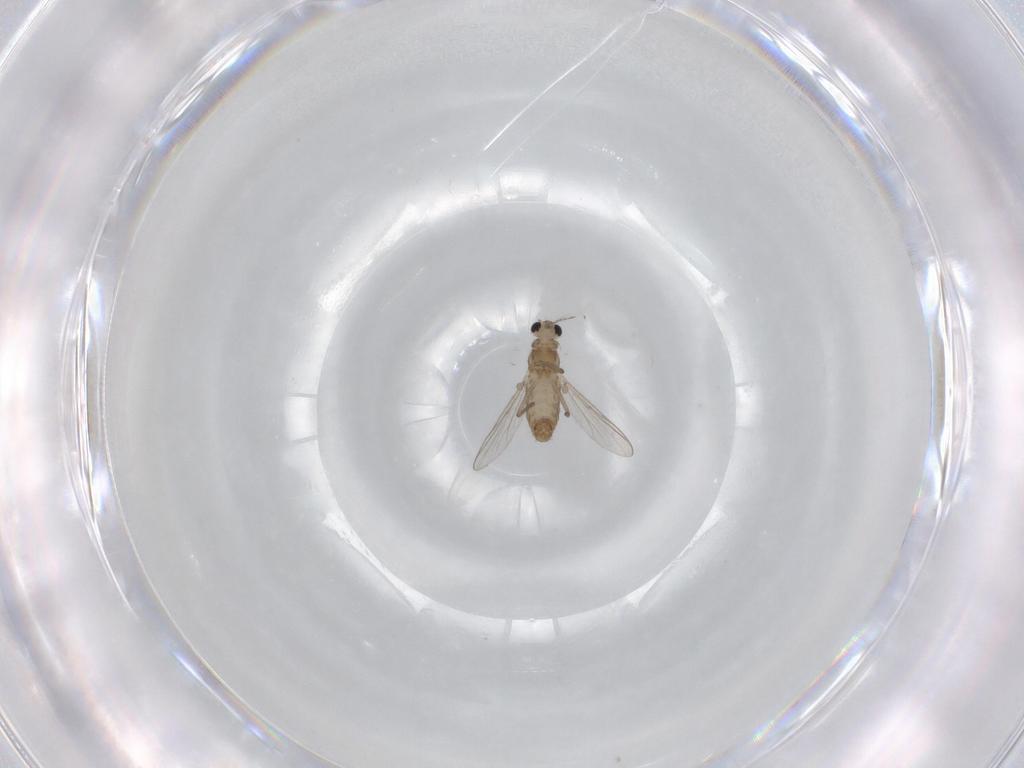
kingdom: Animalia
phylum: Arthropoda
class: Insecta
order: Diptera
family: Chironomidae
